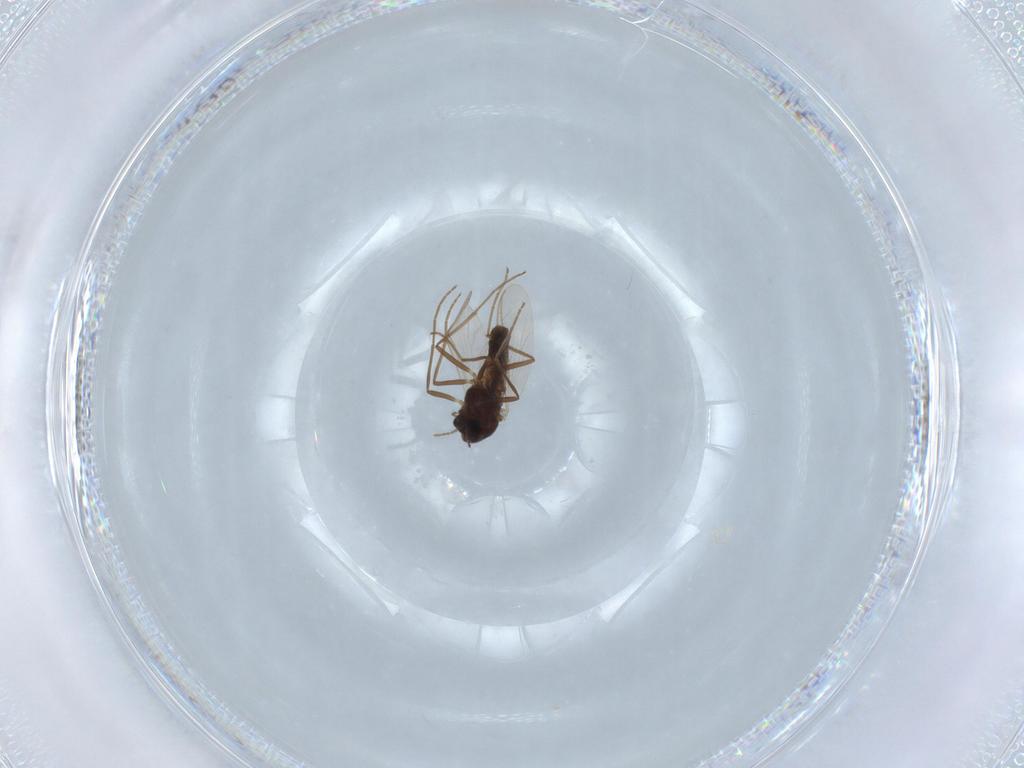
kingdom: Animalia
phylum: Arthropoda
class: Insecta
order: Diptera
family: Chironomidae
